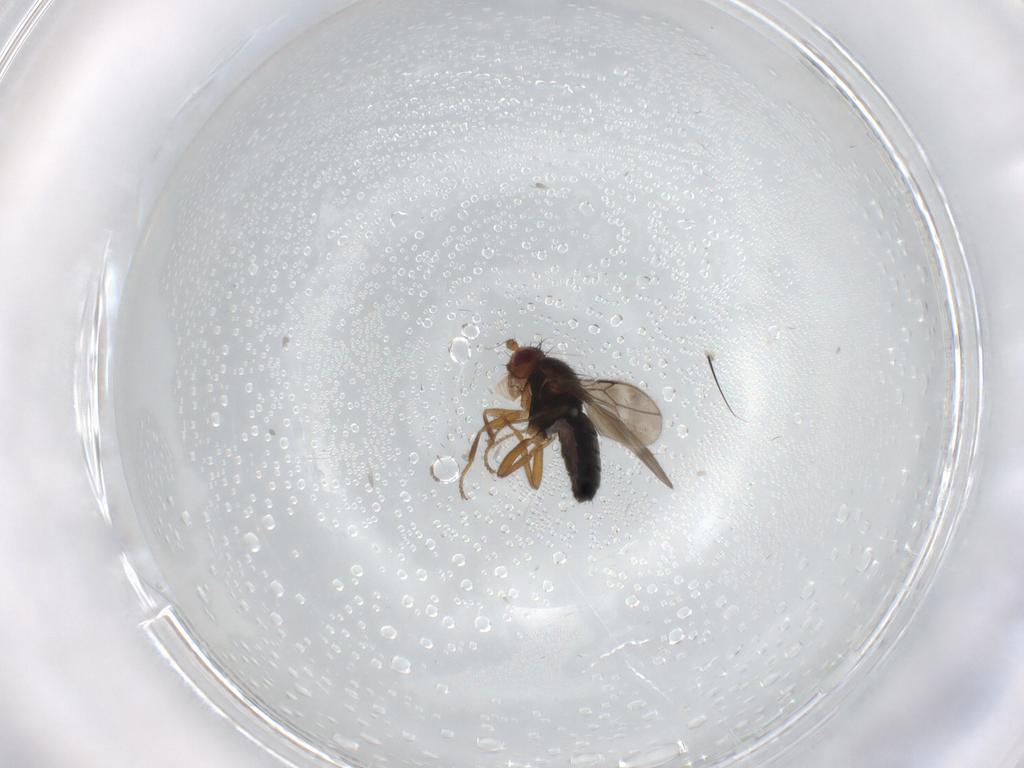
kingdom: Animalia
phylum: Arthropoda
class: Insecta
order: Diptera
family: Sphaeroceridae
